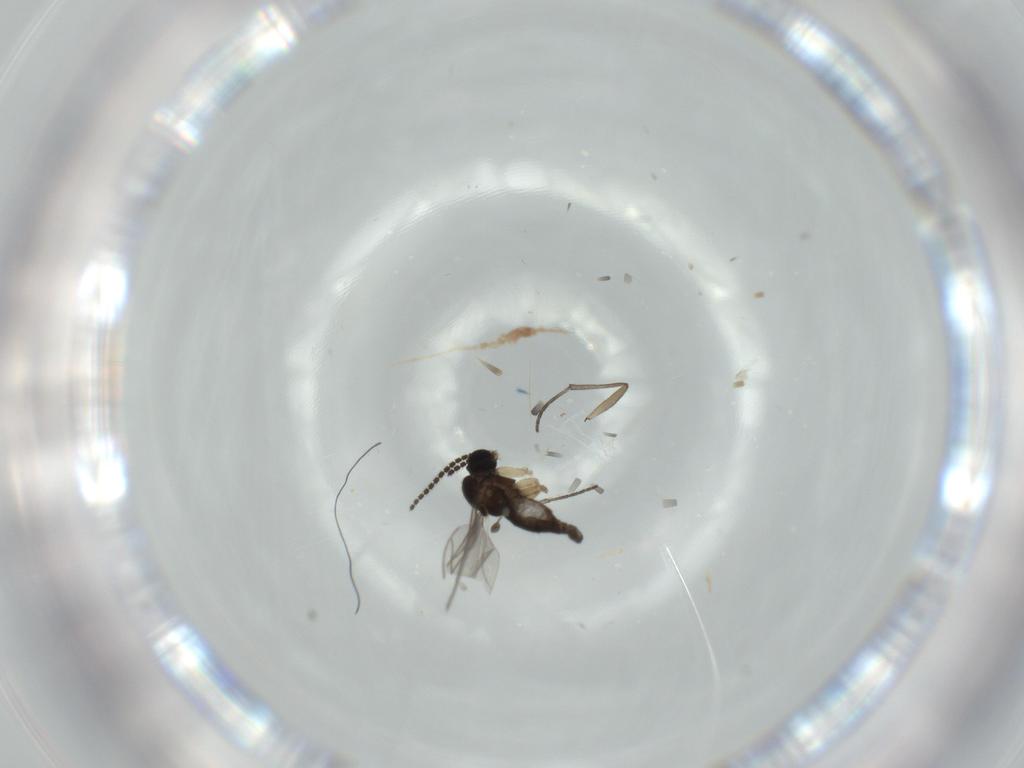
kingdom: Animalia
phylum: Arthropoda
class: Insecta
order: Diptera
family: Sciaridae
